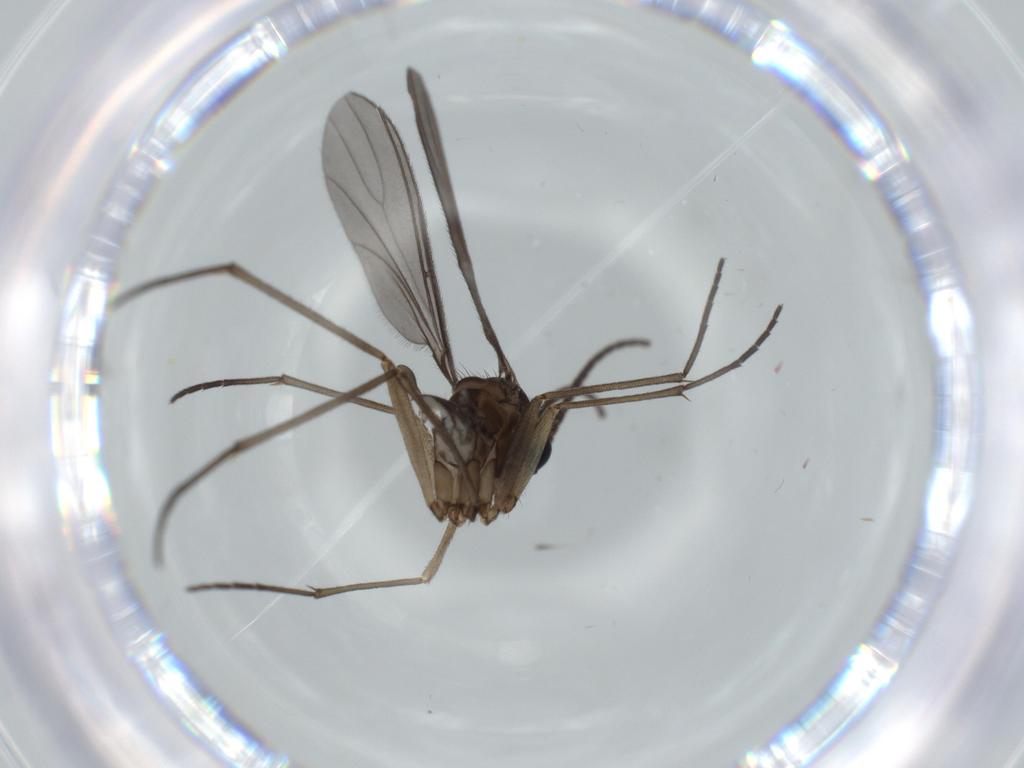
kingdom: Animalia
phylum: Arthropoda
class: Insecta
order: Diptera
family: Sciaridae
